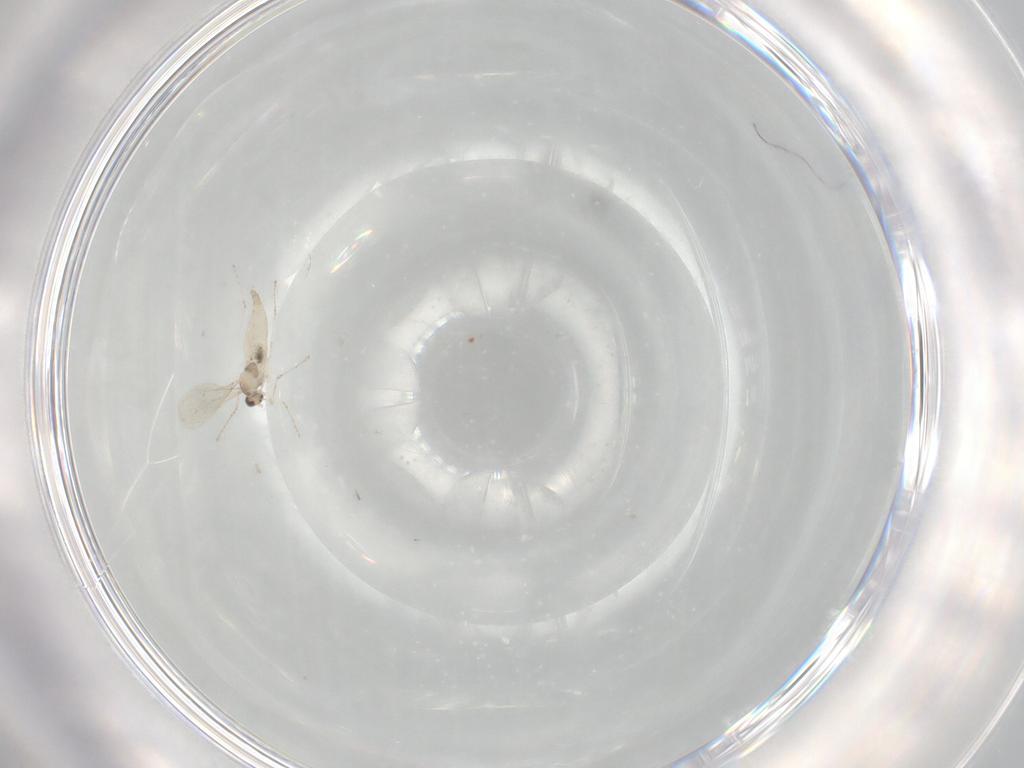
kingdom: Animalia
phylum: Arthropoda
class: Insecta
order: Diptera
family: Cecidomyiidae
